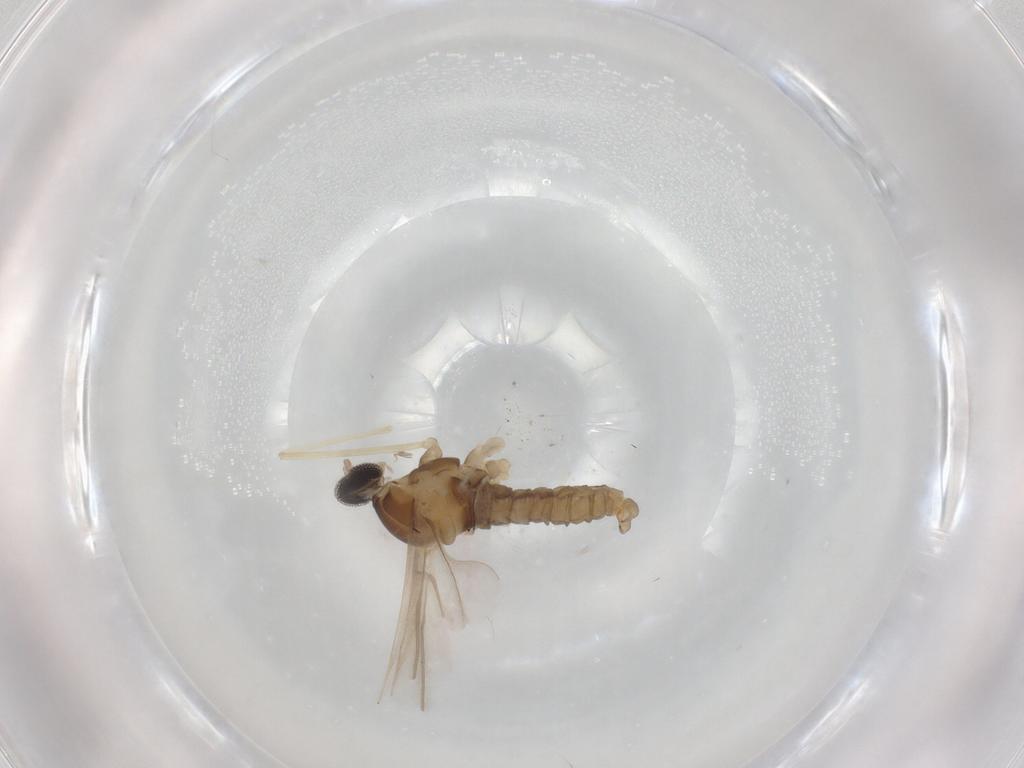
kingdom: Animalia
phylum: Arthropoda
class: Insecta
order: Diptera
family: Cecidomyiidae
